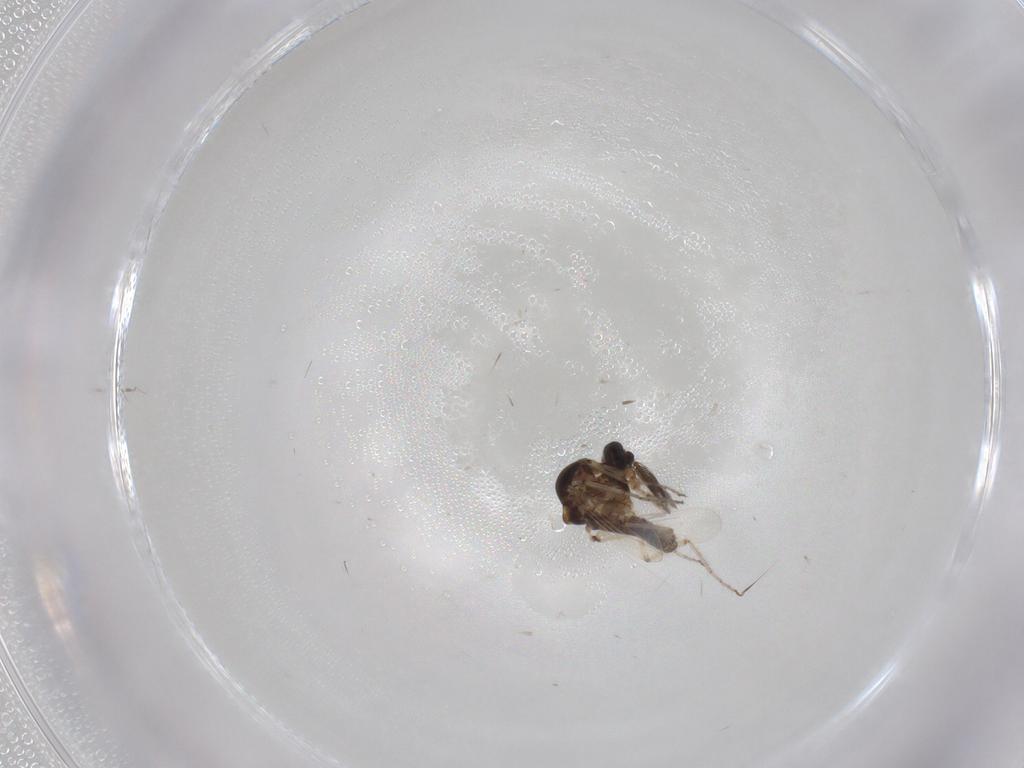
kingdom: Animalia
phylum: Arthropoda
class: Insecta
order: Diptera
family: Ceratopogonidae
